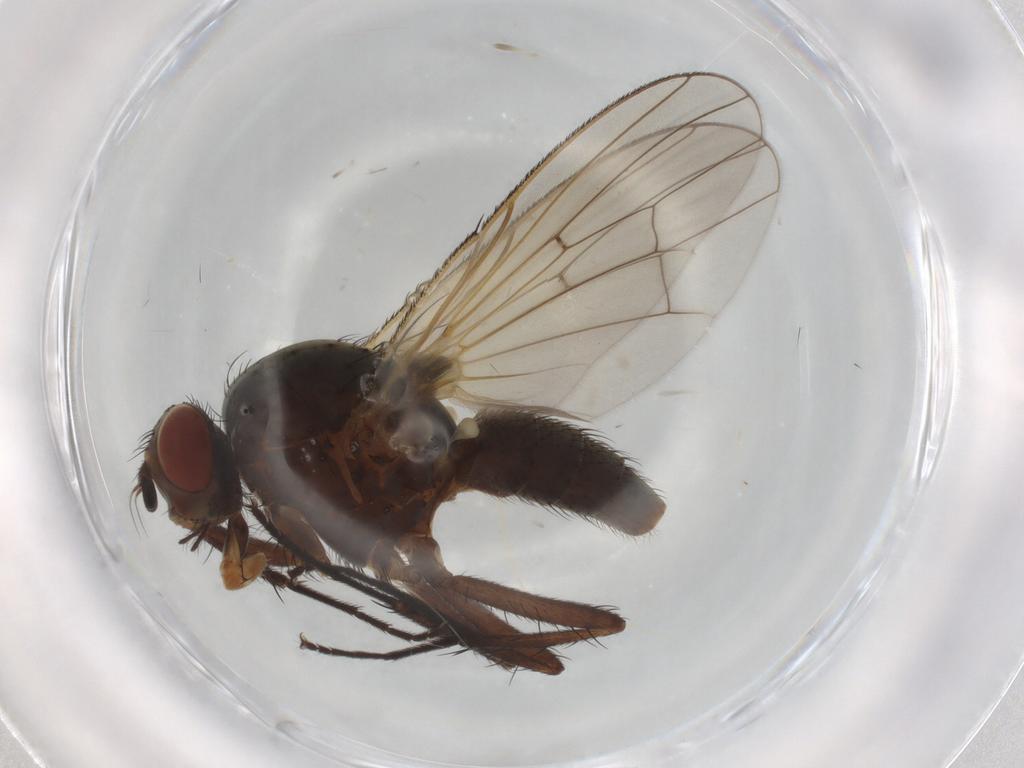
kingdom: Animalia
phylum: Arthropoda
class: Insecta
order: Diptera
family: Anthomyiidae
